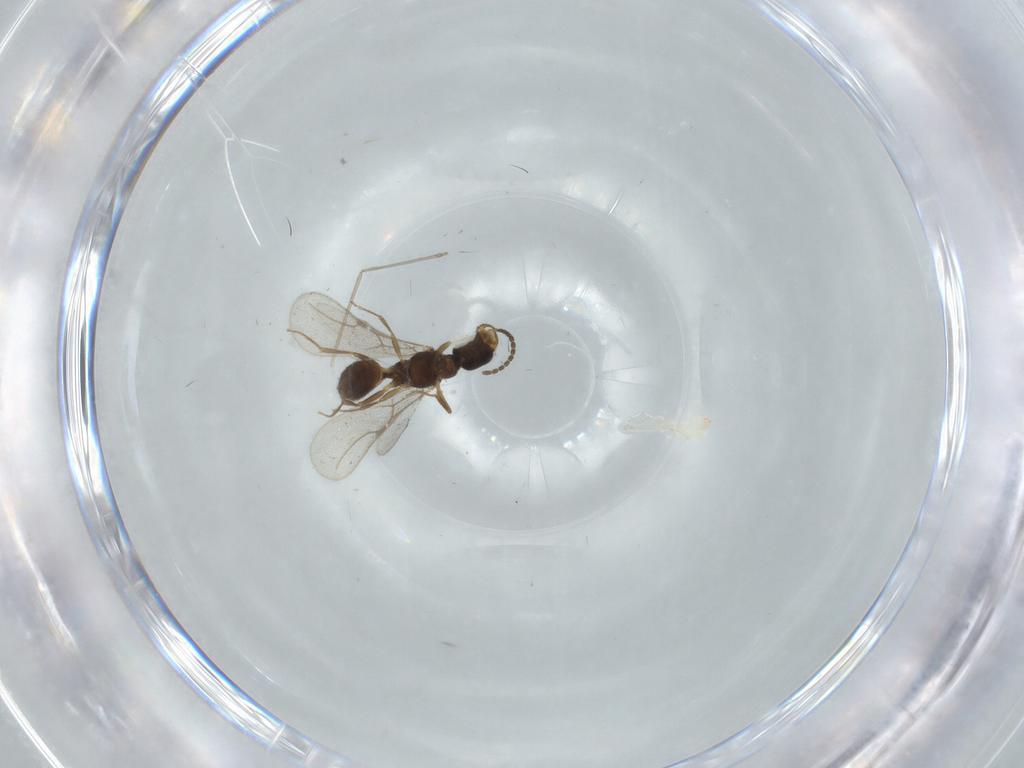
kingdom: Animalia
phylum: Arthropoda
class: Insecta
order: Hymenoptera
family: Bethylidae
